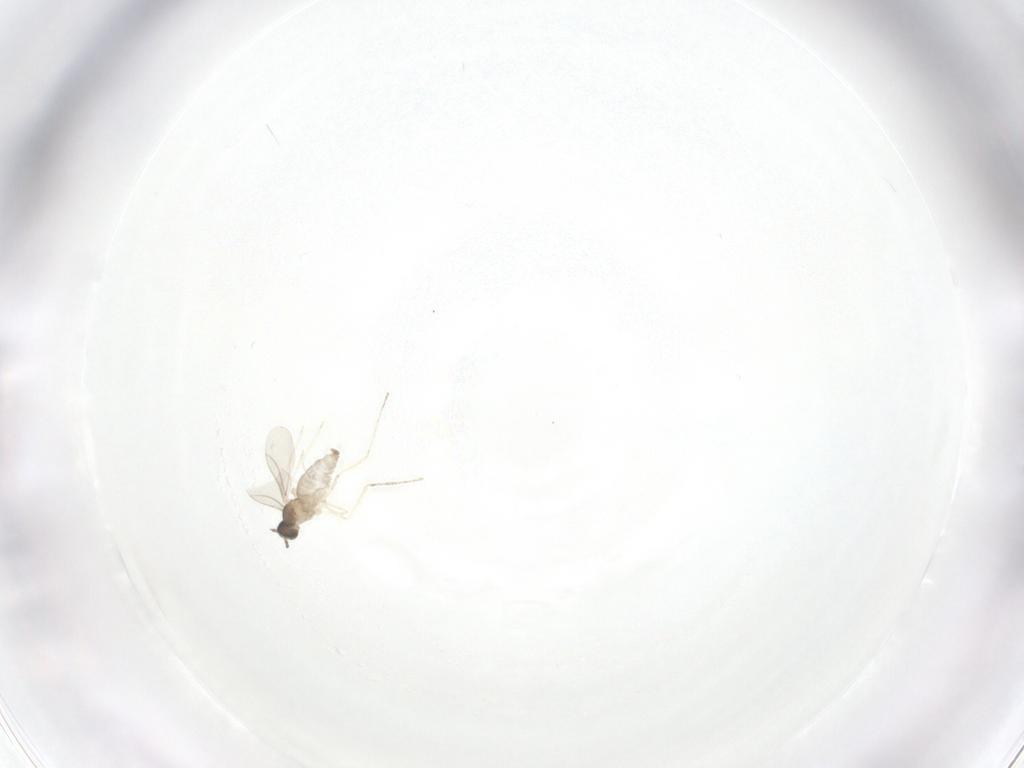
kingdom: Animalia
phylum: Arthropoda
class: Insecta
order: Diptera
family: Cecidomyiidae
